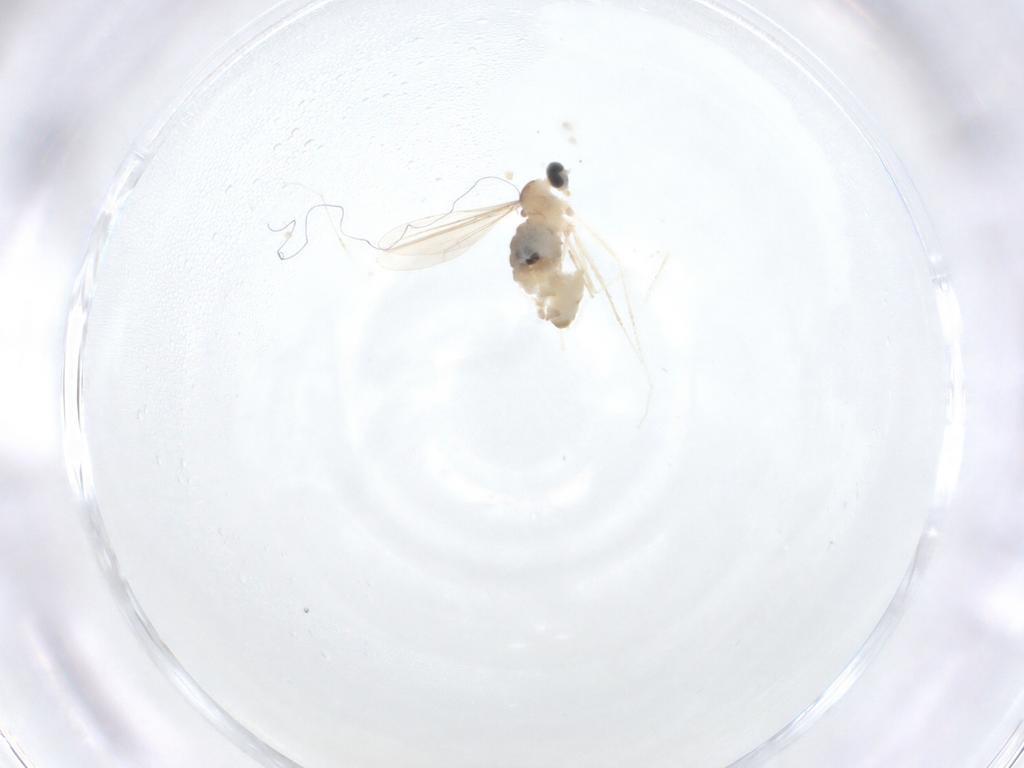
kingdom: Animalia
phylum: Arthropoda
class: Insecta
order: Diptera
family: Cecidomyiidae
